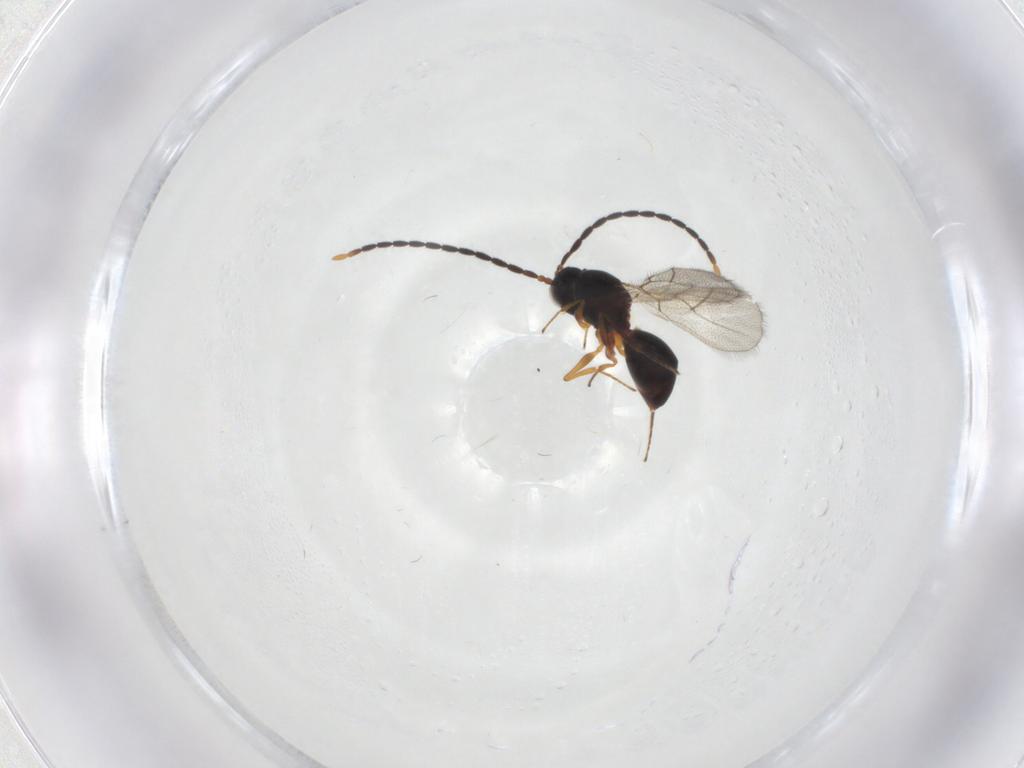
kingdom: Animalia
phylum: Arthropoda
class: Insecta
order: Hymenoptera
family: Figitidae
